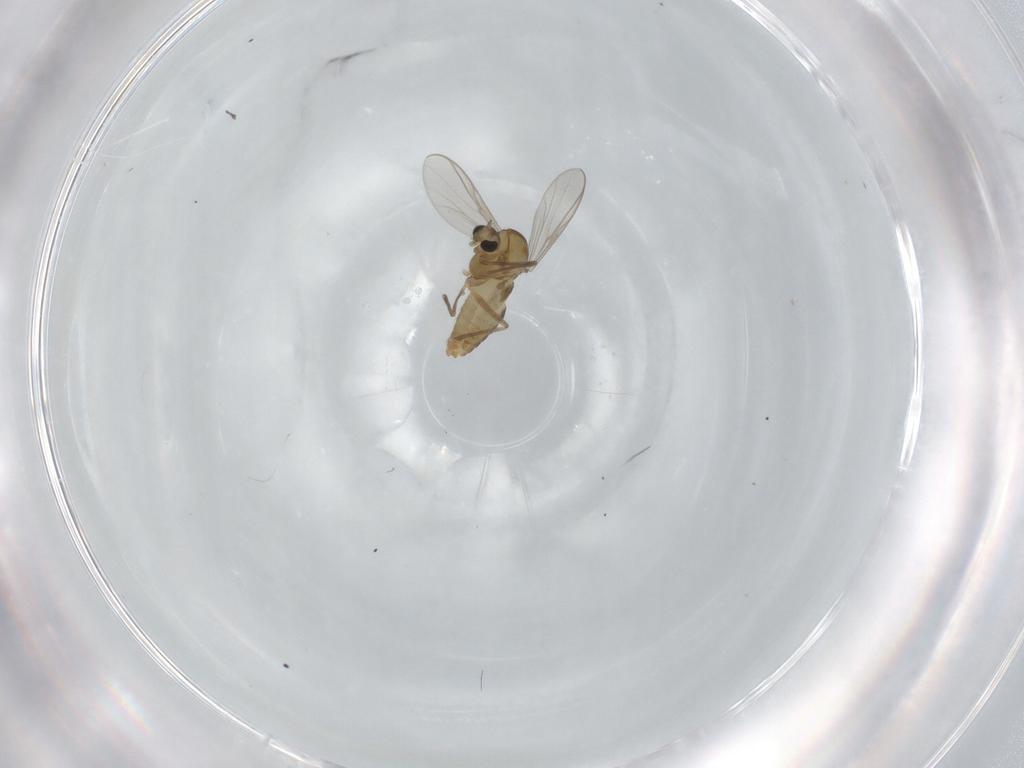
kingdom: Animalia
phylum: Arthropoda
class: Insecta
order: Diptera
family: Chironomidae
